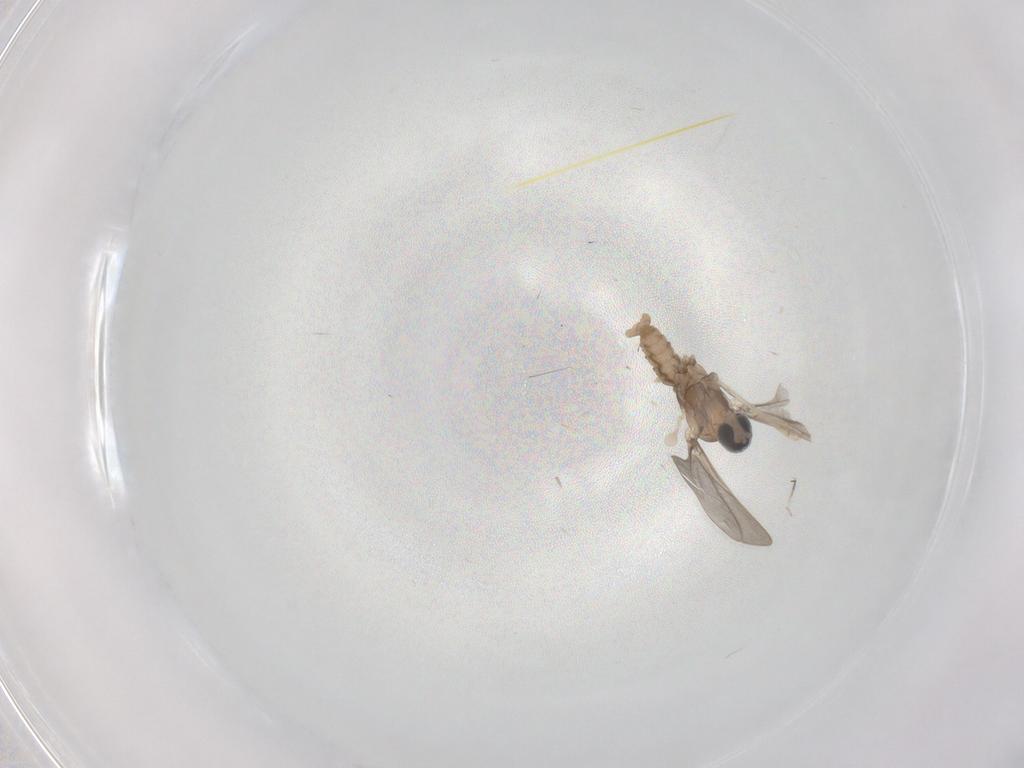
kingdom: Animalia
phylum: Arthropoda
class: Insecta
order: Diptera
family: Cecidomyiidae
